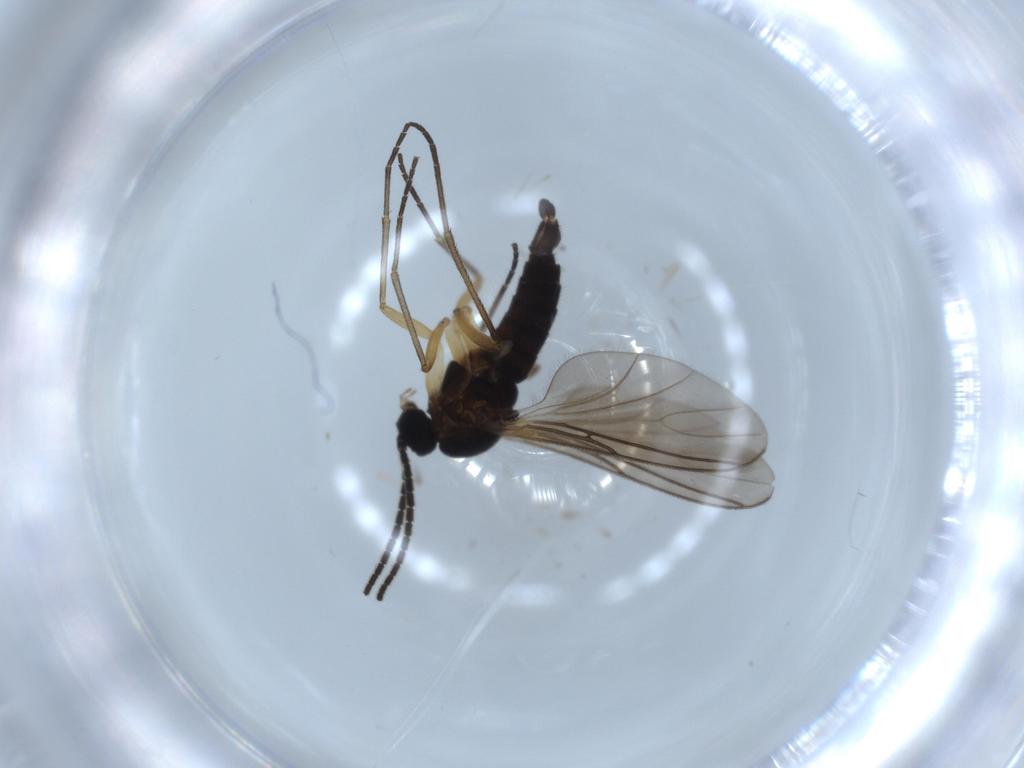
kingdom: Animalia
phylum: Arthropoda
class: Insecta
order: Diptera
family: Sciaridae
